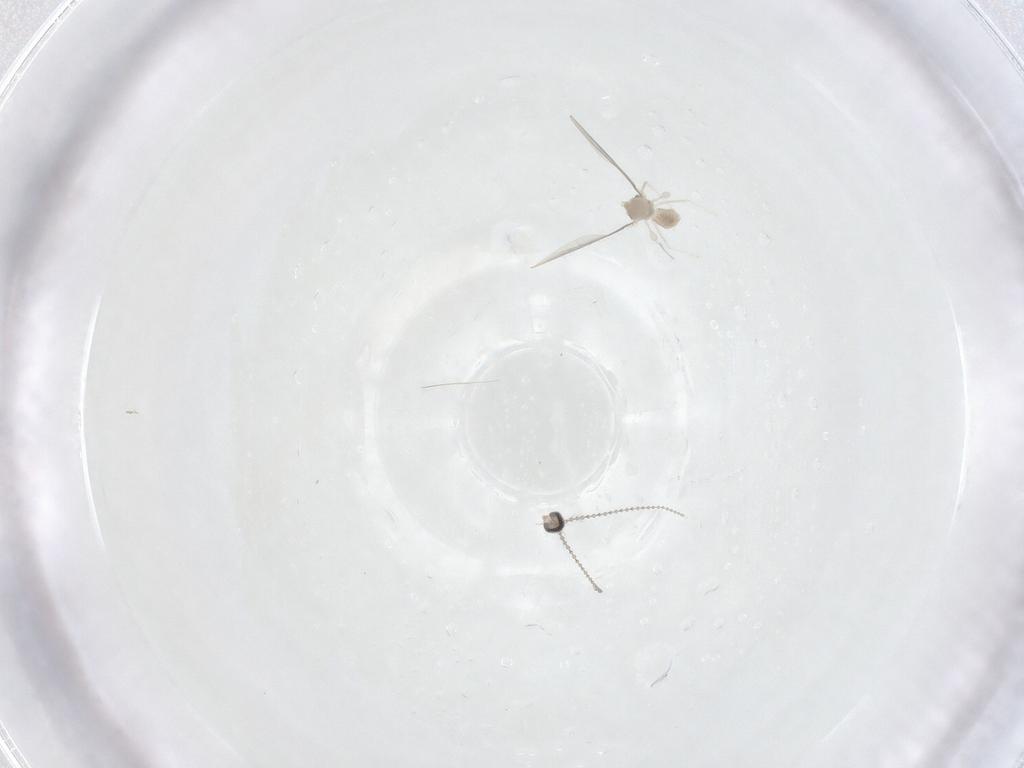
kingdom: Animalia
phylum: Arthropoda
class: Insecta
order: Diptera
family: Cecidomyiidae
